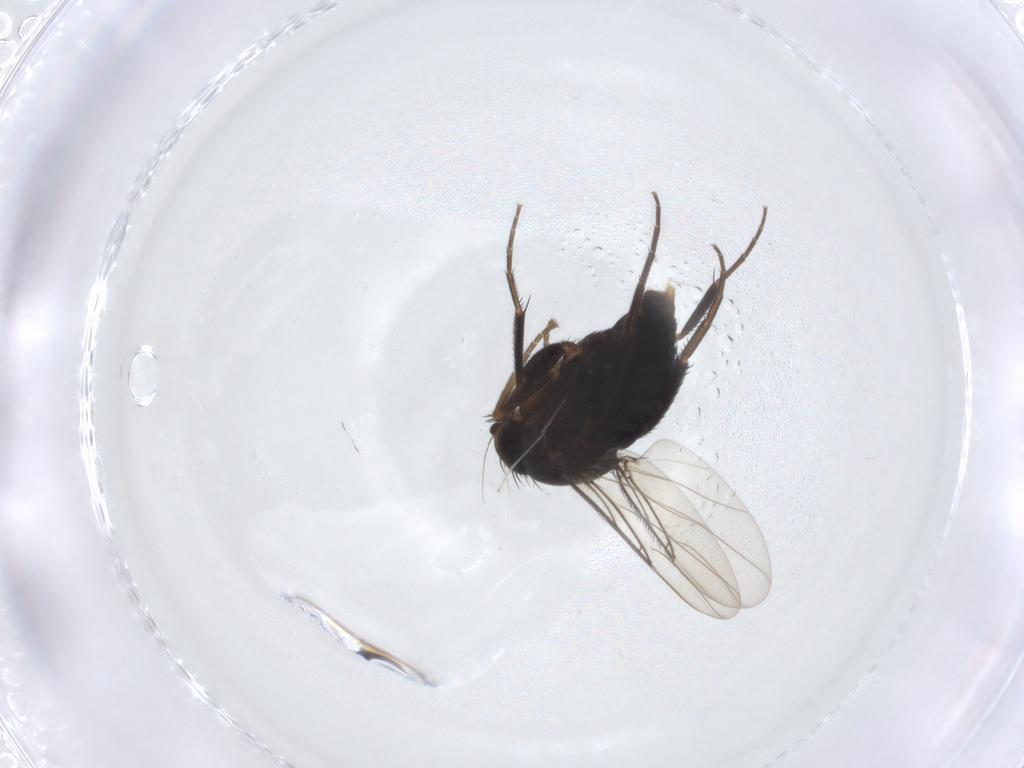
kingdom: Animalia
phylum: Arthropoda
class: Insecta
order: Diptera
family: Phoridae
